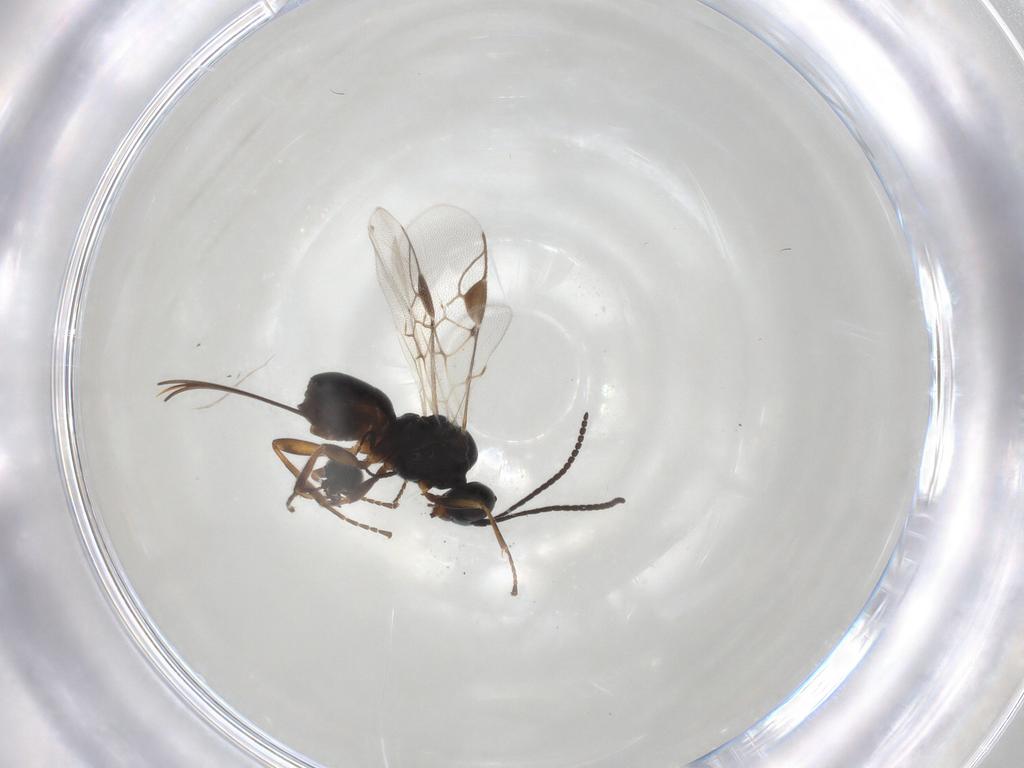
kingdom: Animalia
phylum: Arthropoda
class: Insecta
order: Hymenoptera
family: Scelionidae
